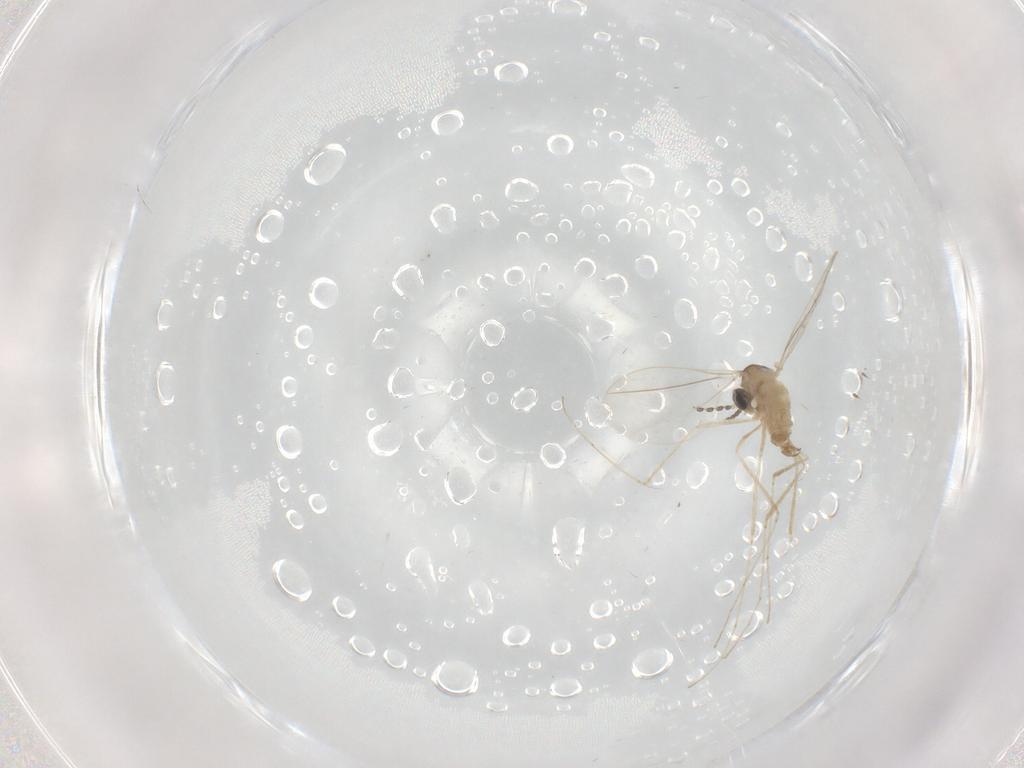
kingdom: Animalia
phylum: Arthropoda
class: Insecta
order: Diptera
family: Cecidomyiidae
